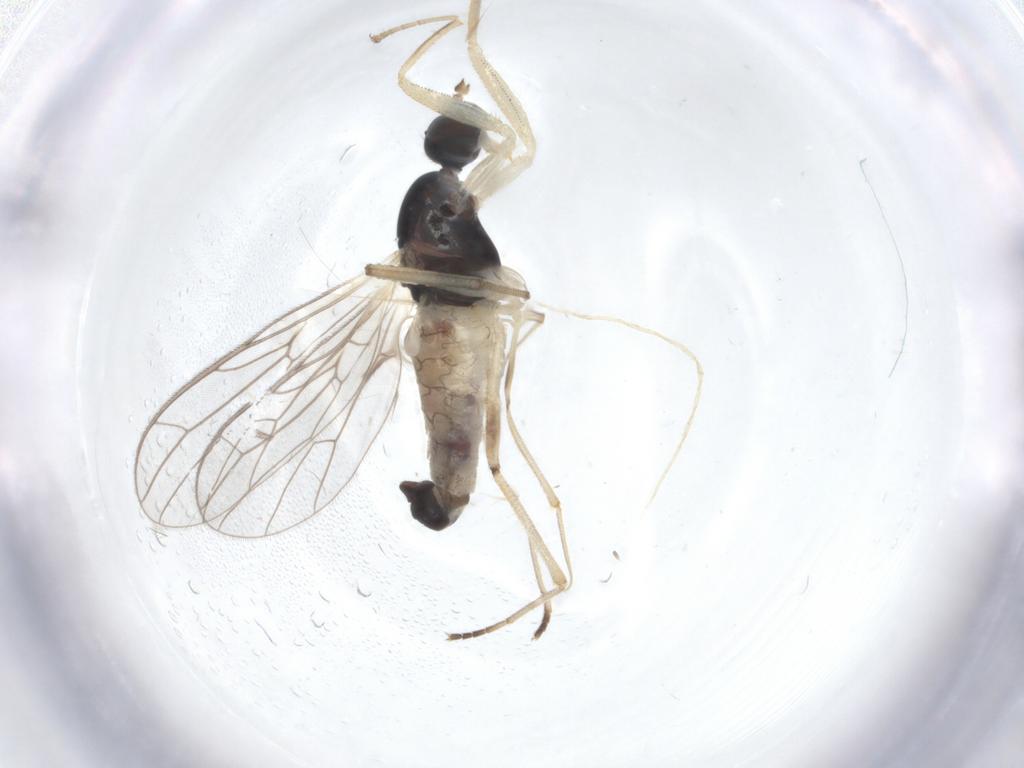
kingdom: Animalia
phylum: Arthropoda
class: Insecta
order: Diptera
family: Empididae
